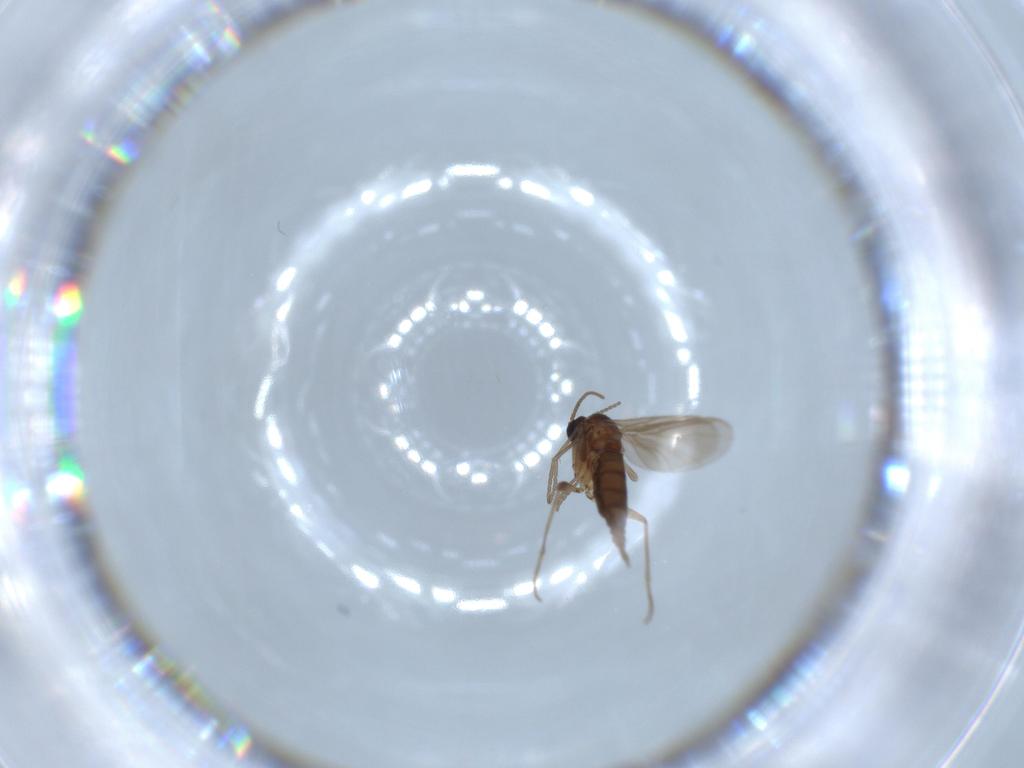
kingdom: Animalia
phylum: Arthropoda
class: Insecta
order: Diptera
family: Sciaridae
